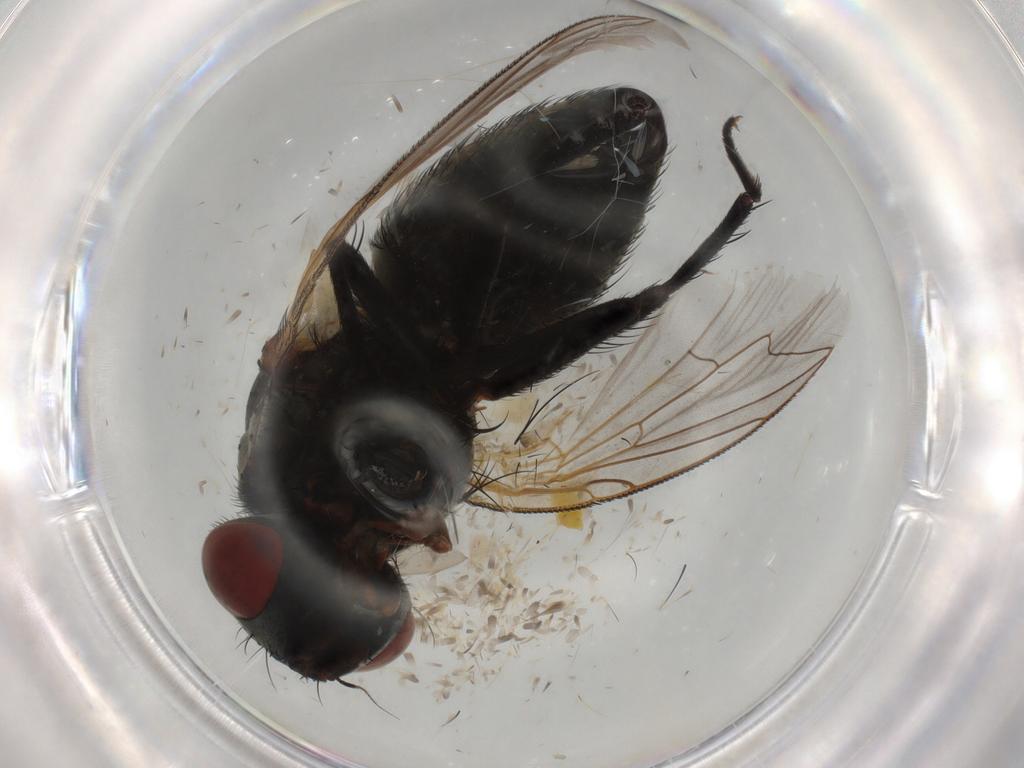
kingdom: Animalia
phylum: Arthropoda
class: Insecta
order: Diptera
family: Sarcophagidae
